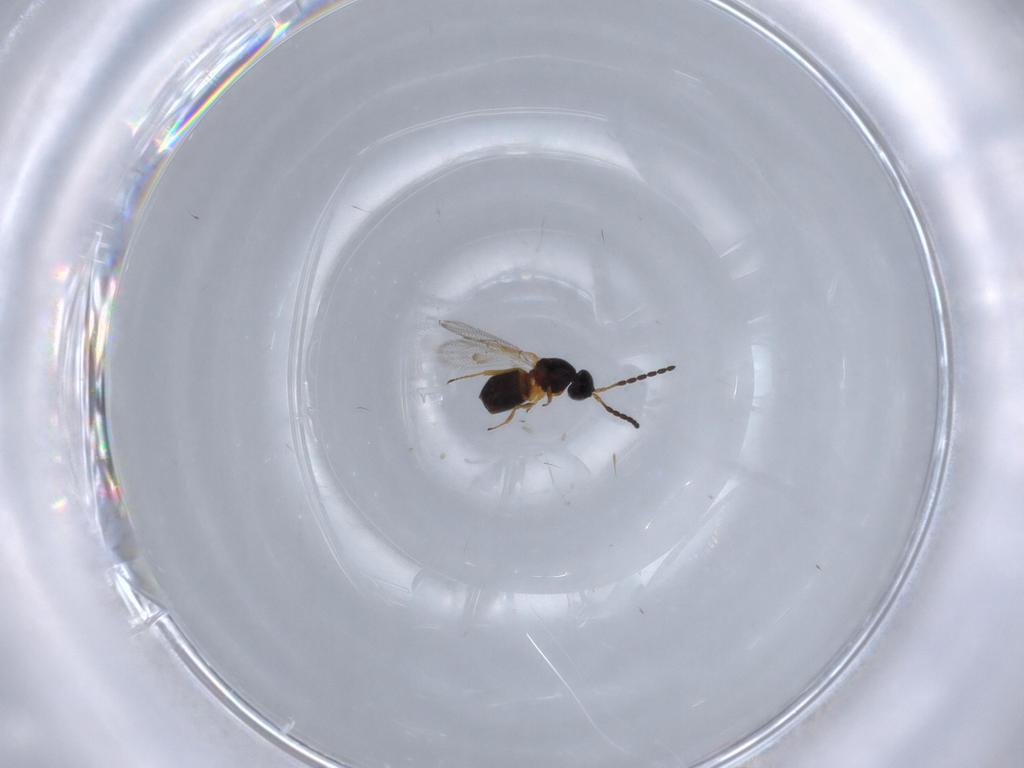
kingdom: Animalia
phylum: Arthropoda
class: Insecta
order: Hymenoptera
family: Figitidae
